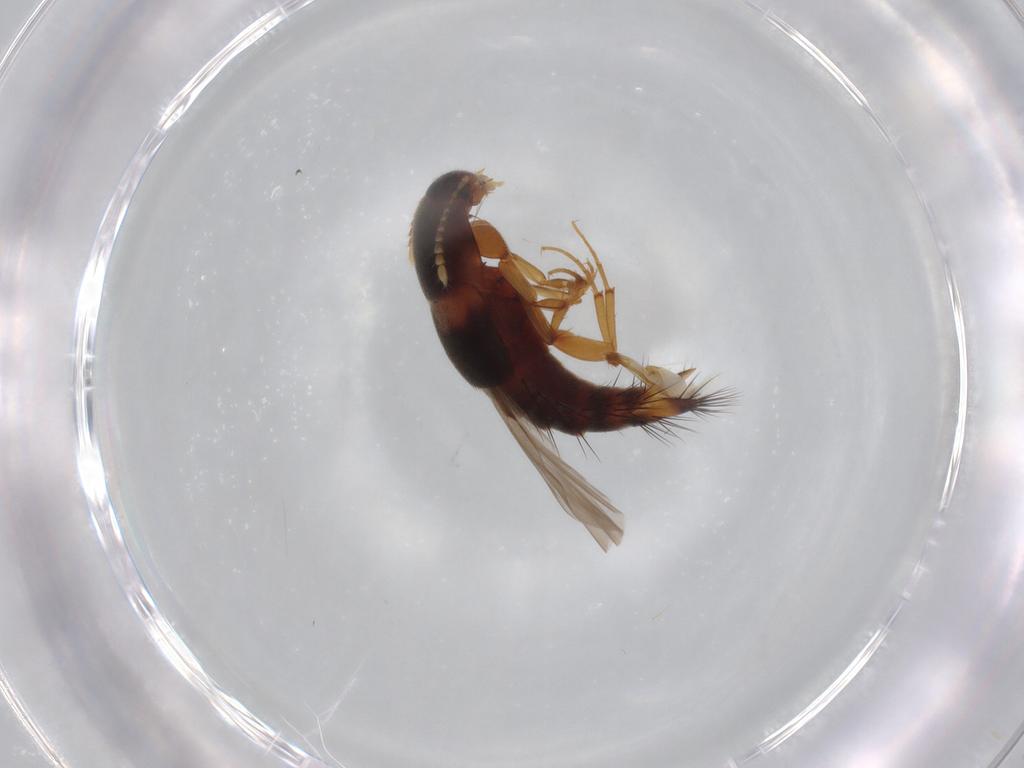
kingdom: Animalia
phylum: Arthropoda
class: Insecta
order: Coleoptera
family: Staphylinidae
